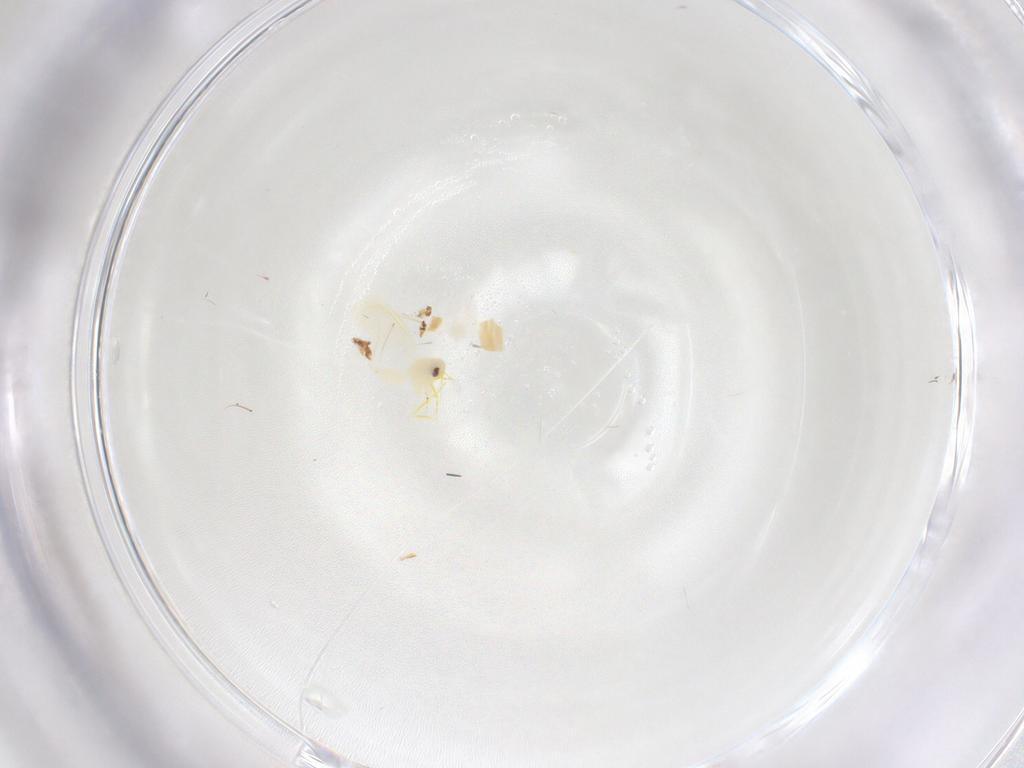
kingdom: Animalia
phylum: Arthropoda
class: Insecta
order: Orthoptera
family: Acrididae
